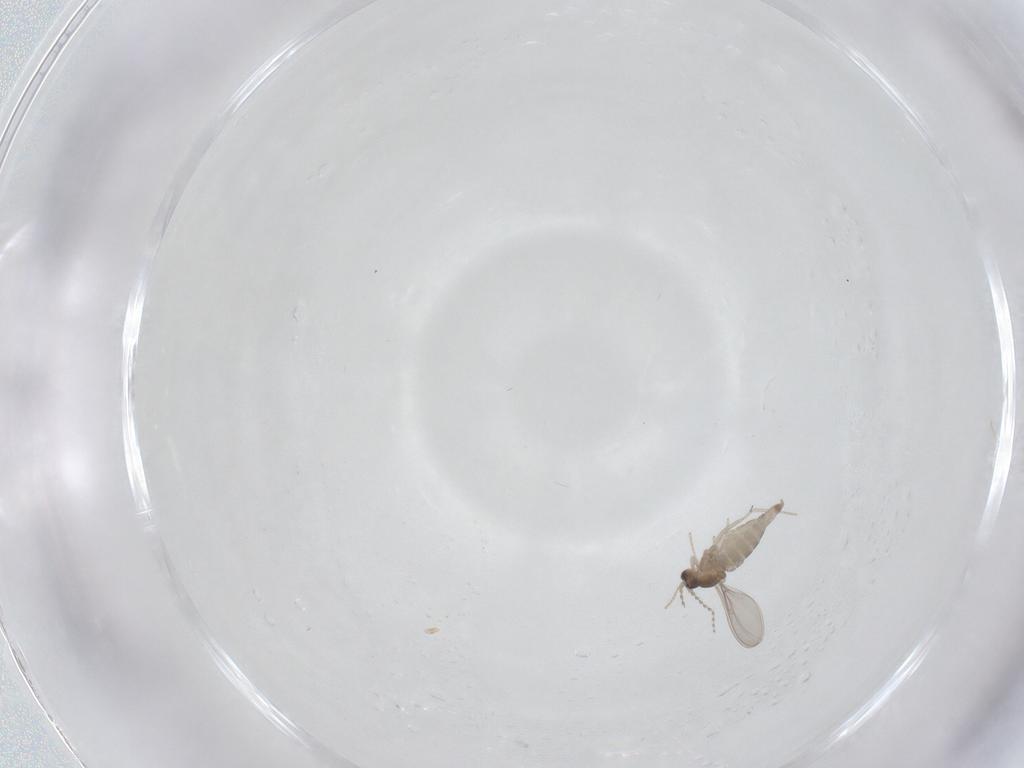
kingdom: Animalia
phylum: Arthropoda
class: Insecta
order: Diptera
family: Cecidomyiidae
